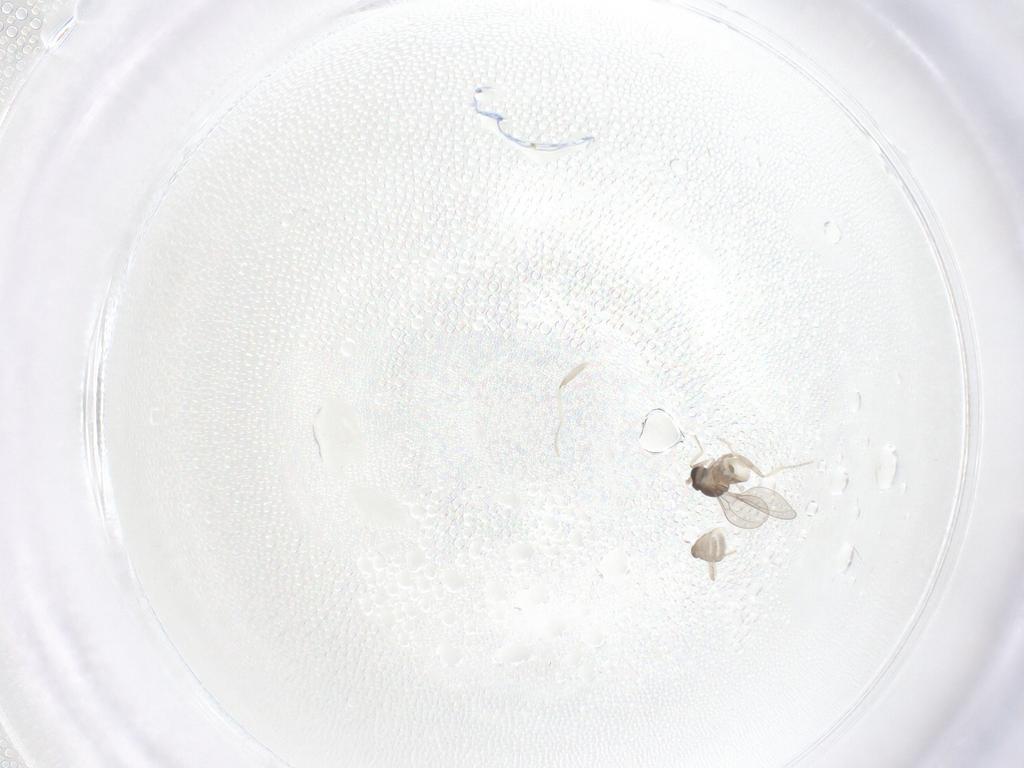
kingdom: Animalia
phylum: Arthropoda
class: Insecta
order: Diptera
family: Cecidomyiidae
